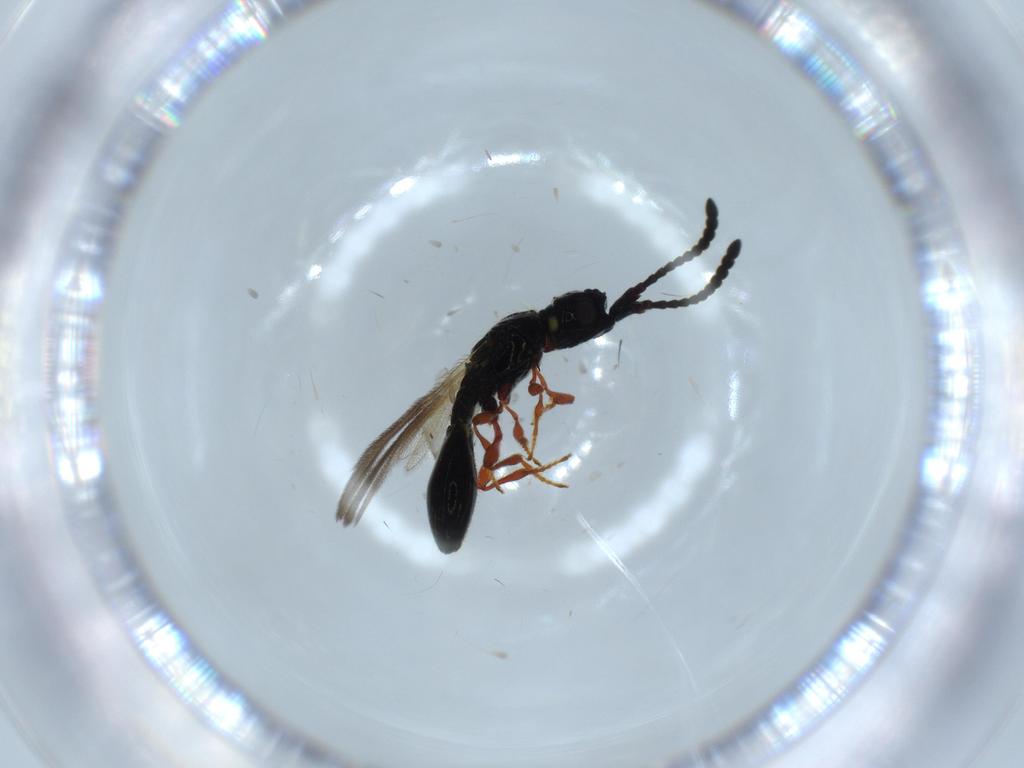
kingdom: Animalia
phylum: Arthropoda
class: Insecta
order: Hymenoptera
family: Diapriidae
